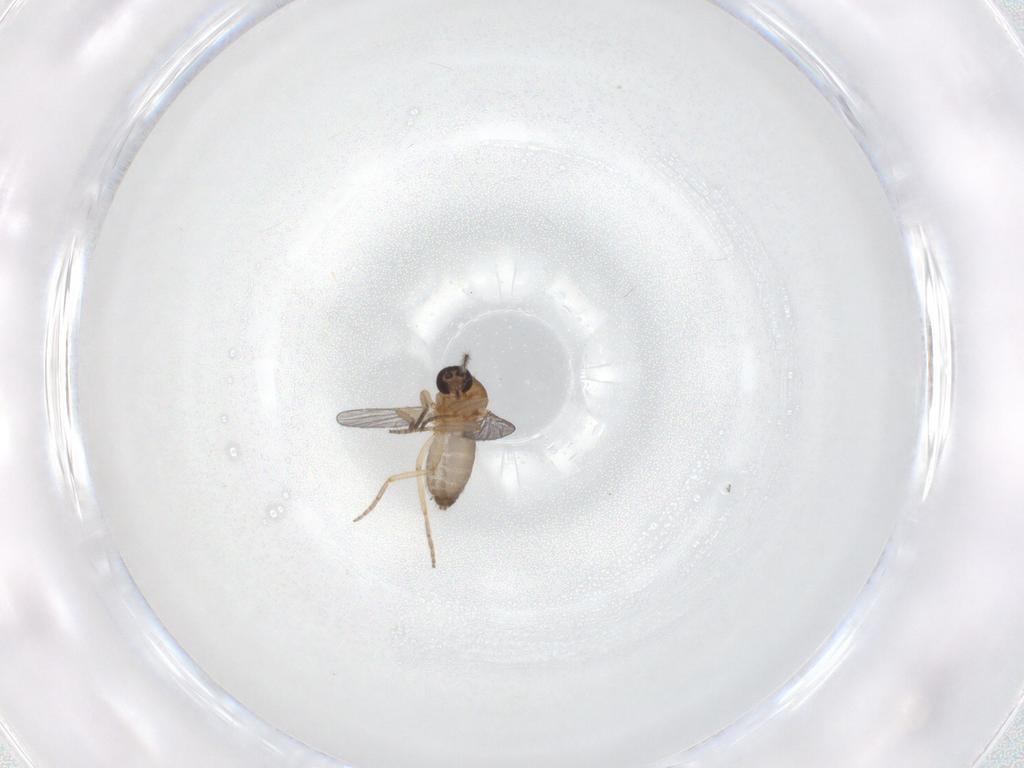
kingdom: Animalia
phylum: Arthropoda
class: Insecta
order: Diptera
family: Ceratopogonidae
